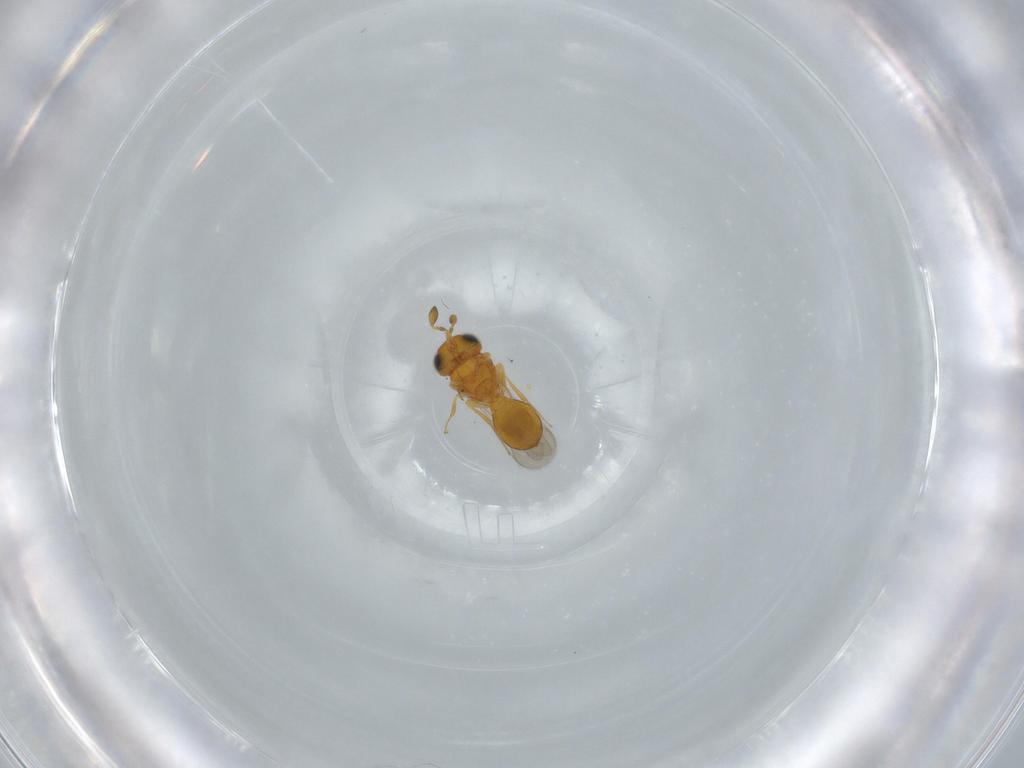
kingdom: Animalia
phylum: Arthropoda
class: Insecta
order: Hymenoptera
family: Scelionidae
